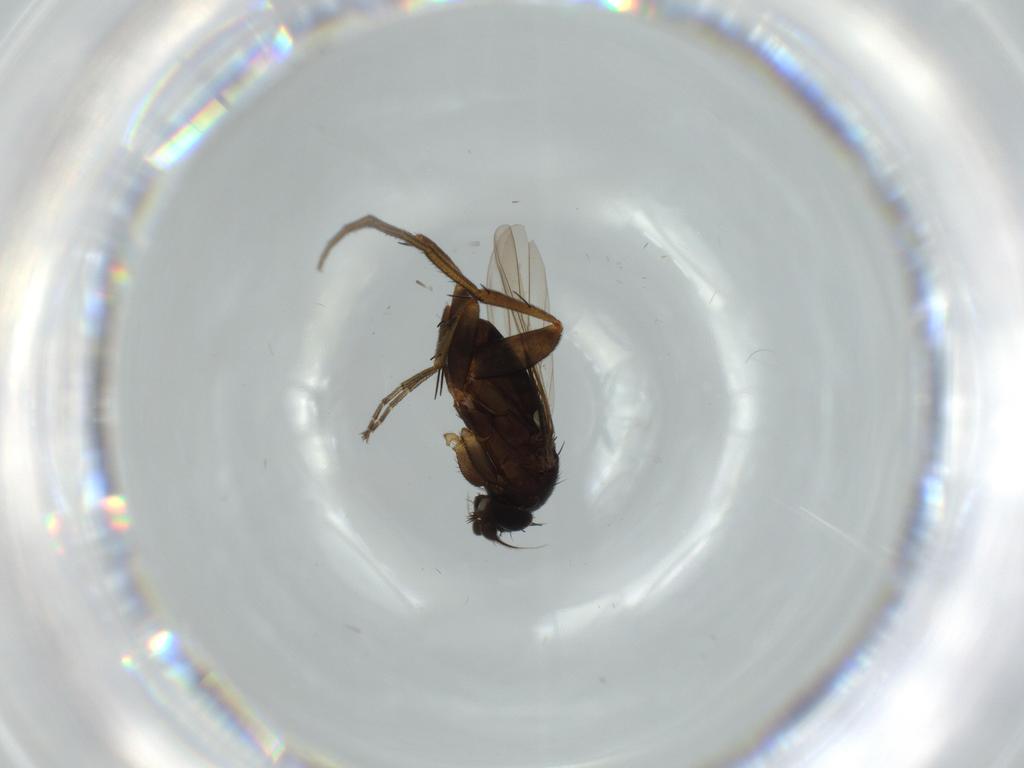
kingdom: Animalia
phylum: Arthropoda
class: Insecta
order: Diptera
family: Phoridae
